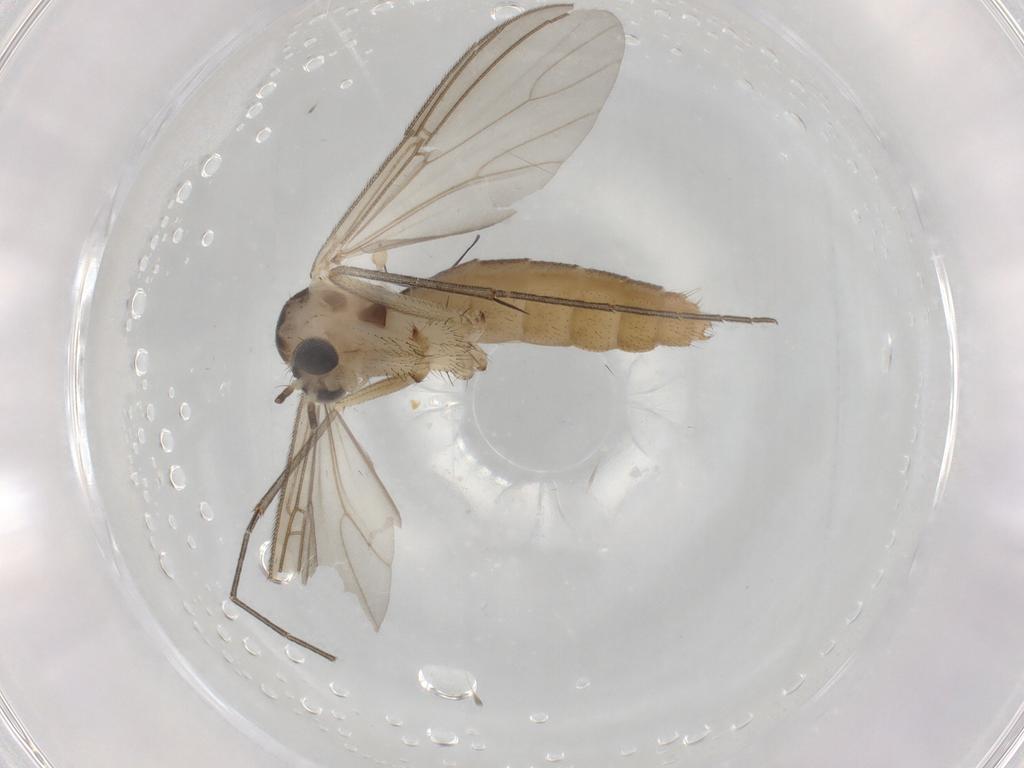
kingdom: Animalia
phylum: Arthropoda
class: Insecta
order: Diptera
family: Mycetophilidae
